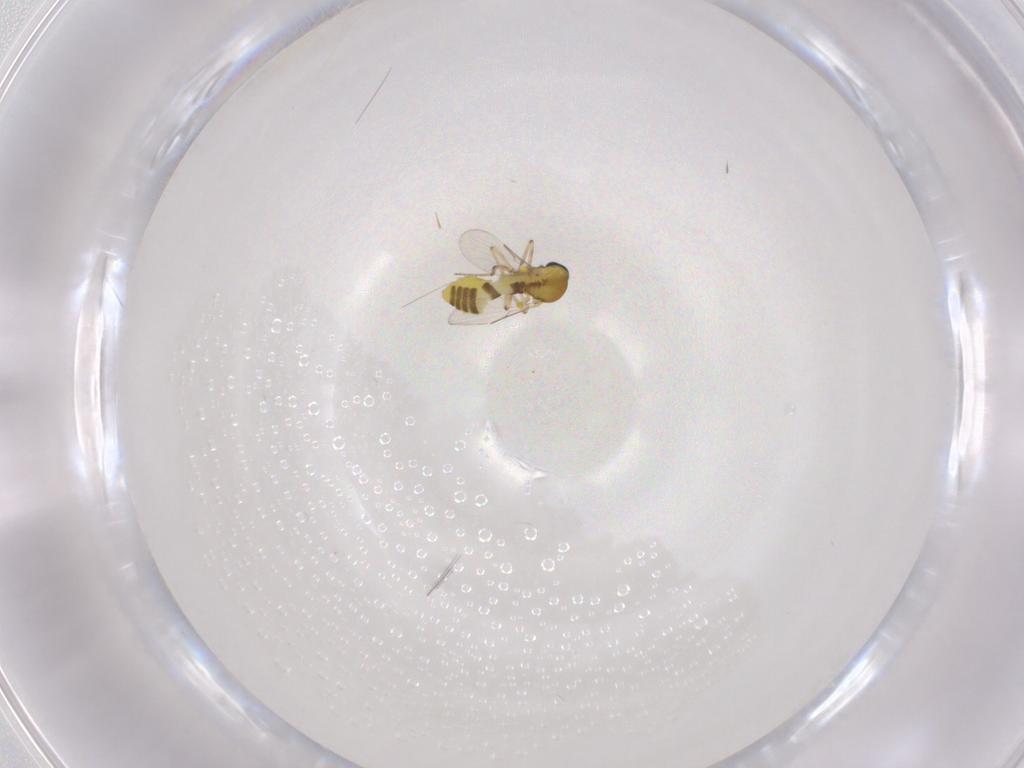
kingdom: Animalia
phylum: Arthropoda
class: Insecta
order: Diptera
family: Ceratopogonidae
